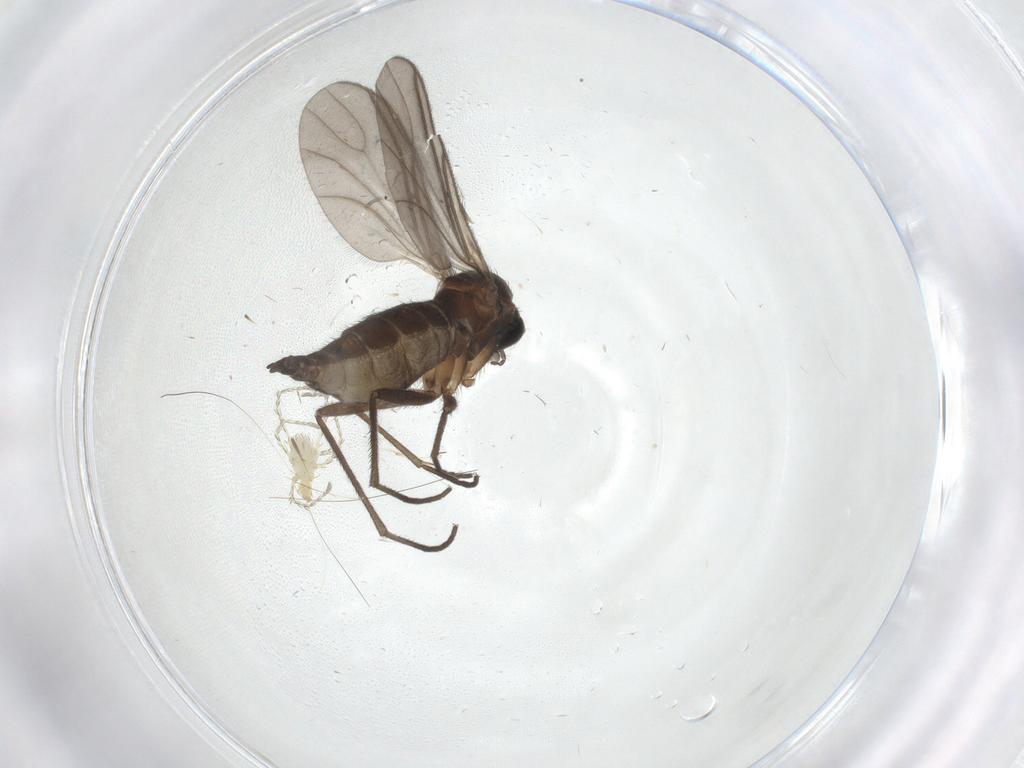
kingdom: Animalia
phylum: Arthropoda
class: Insecta
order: Diptera
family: Sciaridae
